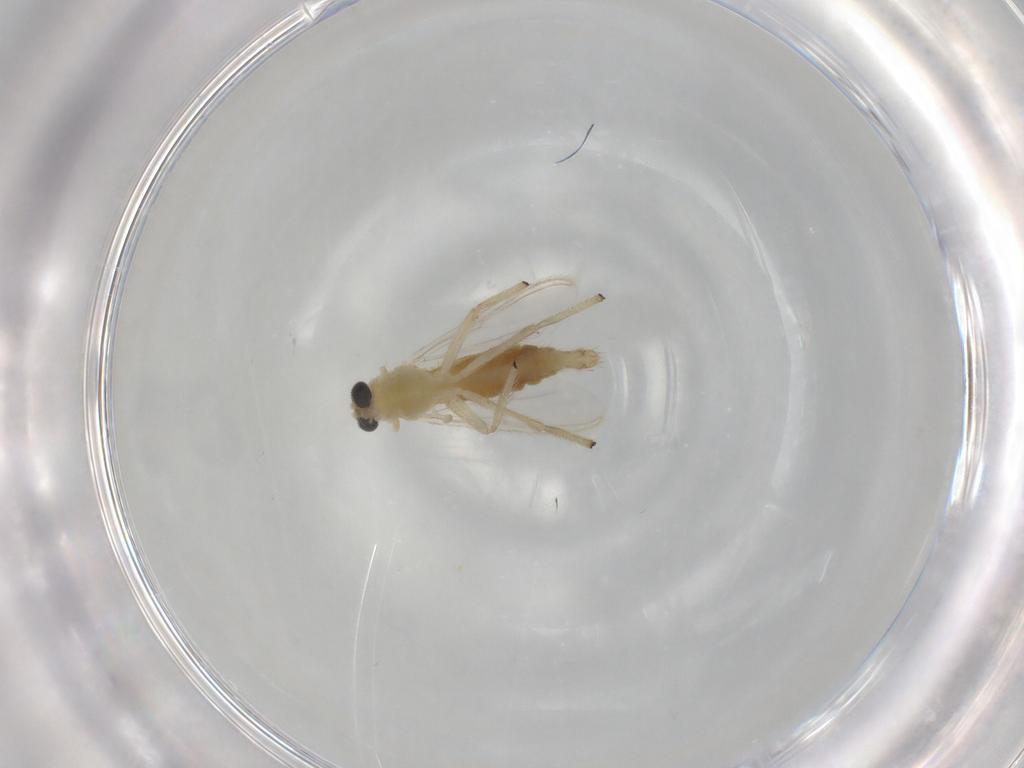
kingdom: Animalia
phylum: Arthropoda
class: Insecta
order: Diptera
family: Chironomidae
